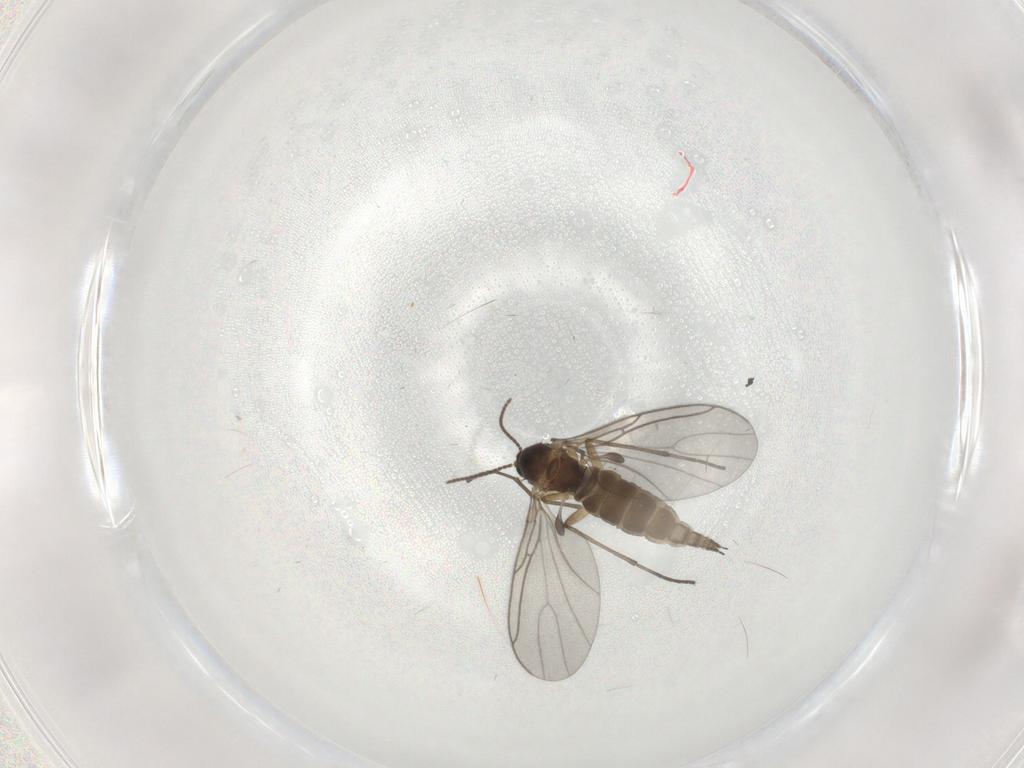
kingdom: Animalia
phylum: Arthropoda
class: Insecta
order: Diptera
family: Sciaridae
